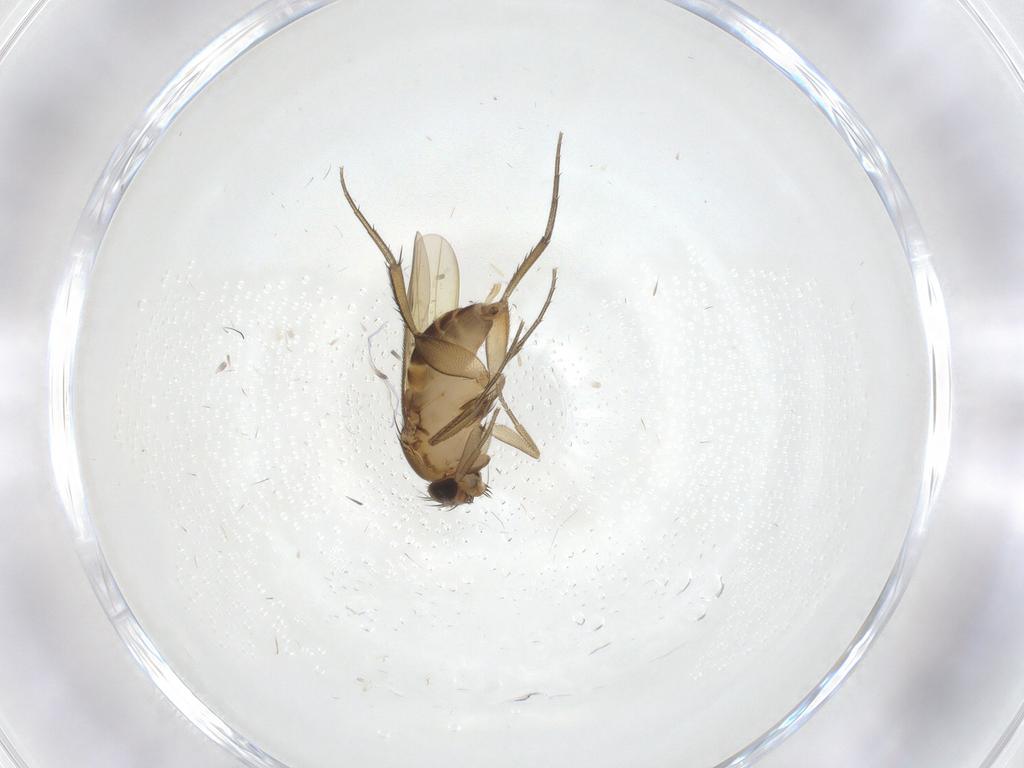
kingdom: Animalia
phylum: Arthropoda
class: Insecta
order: Diptera
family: Phoridae
